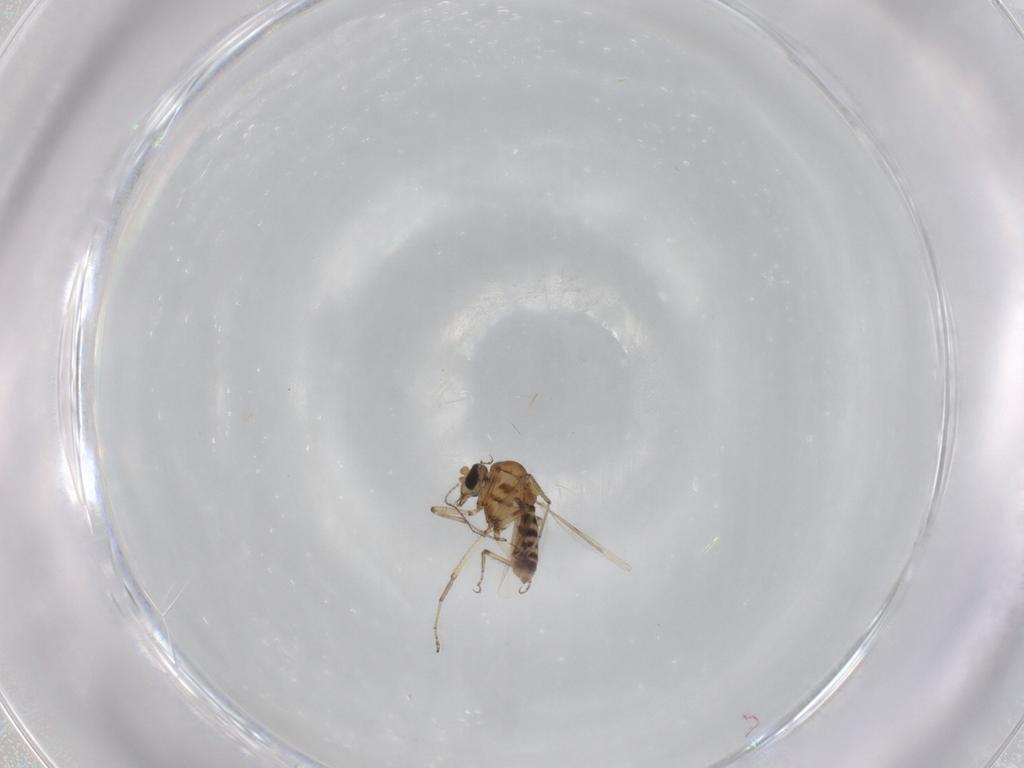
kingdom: Animalia
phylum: Arthropoda
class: Insecta
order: Diptera
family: Ceratopogonidae
